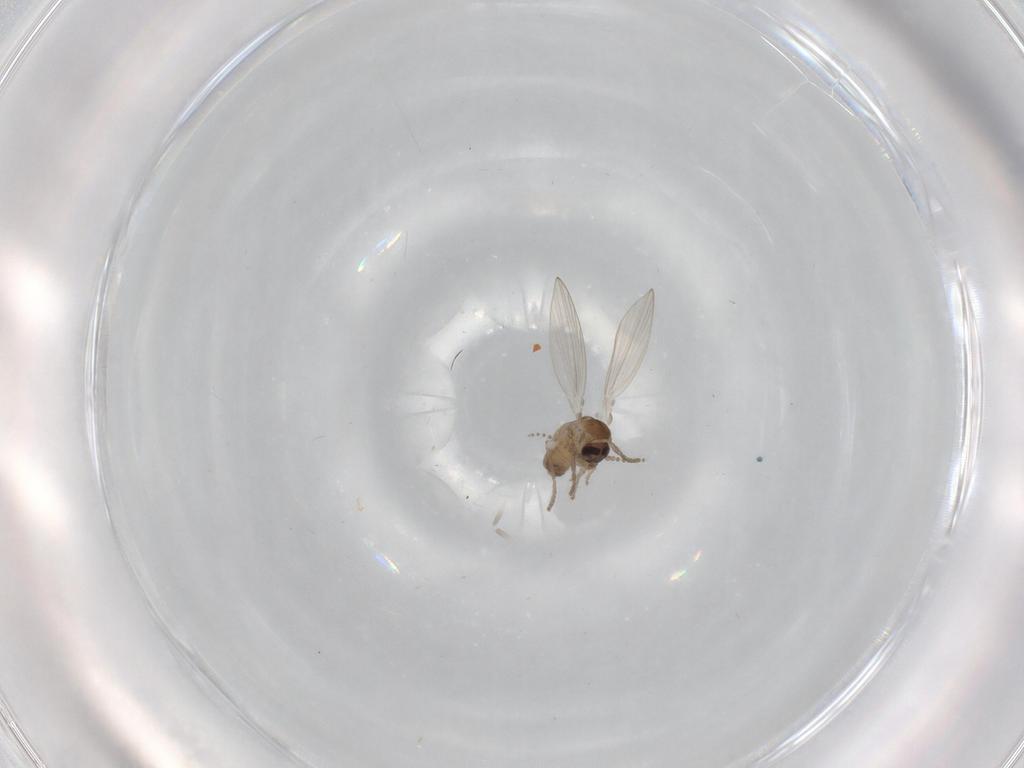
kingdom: Animalia
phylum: Arthropoda
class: Insecta
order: Diptera
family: Psychodidae
